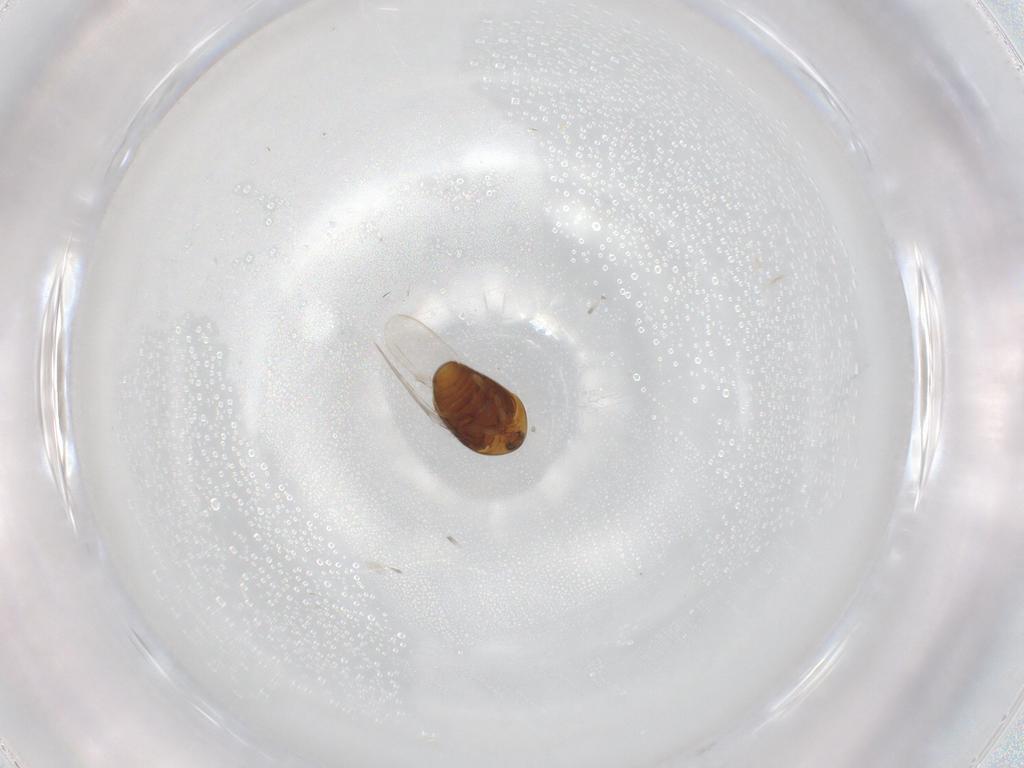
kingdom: Animalia
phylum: Arthropoda
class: Insecta
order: Coleoptera
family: Corylophidae
